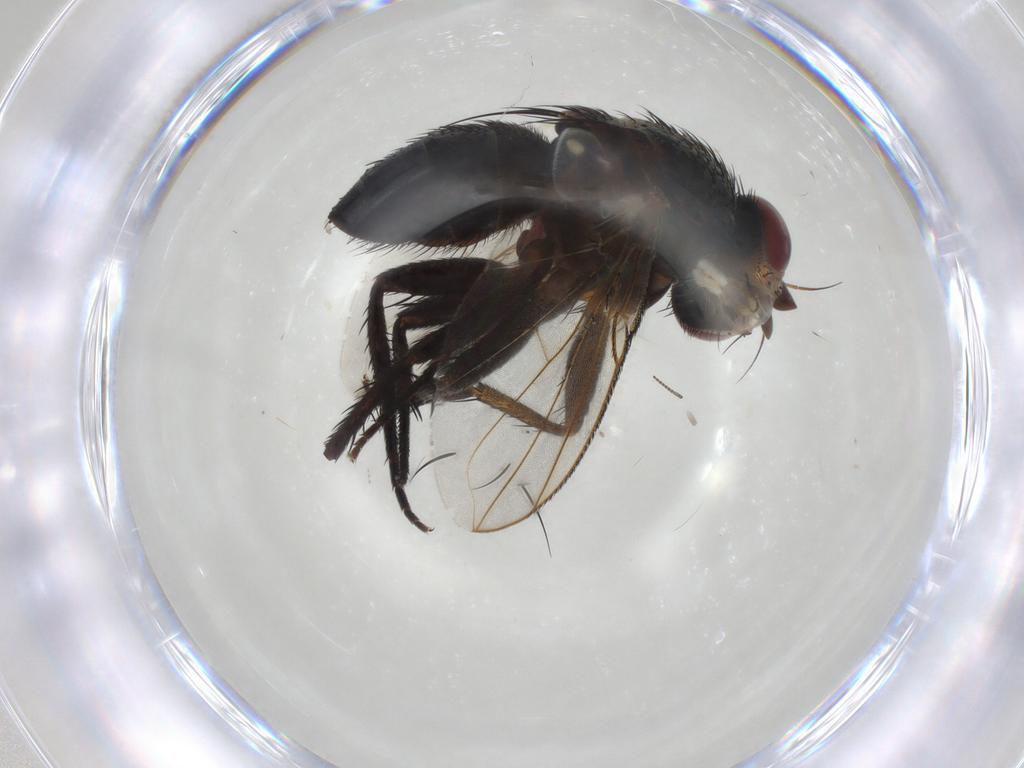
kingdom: Animalia
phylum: Arthropoda
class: Insecta
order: Diptera
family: Tachinidae
